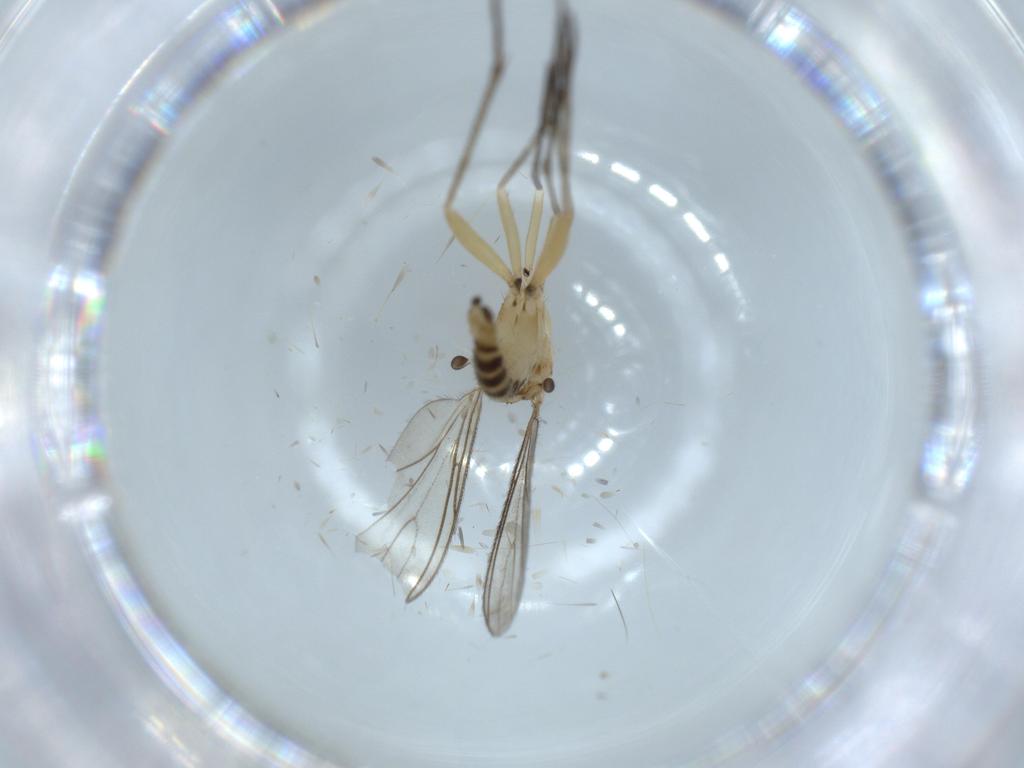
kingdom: Animalia
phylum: Arthropoda
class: Insecta
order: Diptera
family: Sciaridae
